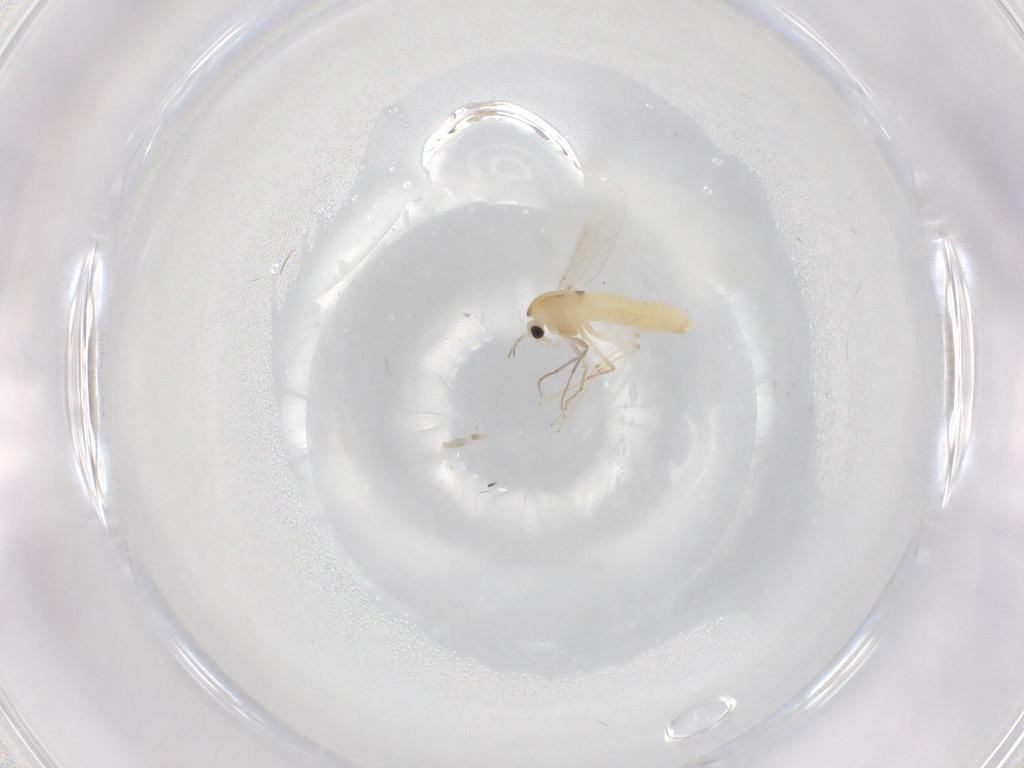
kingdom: Animalia
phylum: Arthropoda
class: Insecta
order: Diptera
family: Chironomidae
